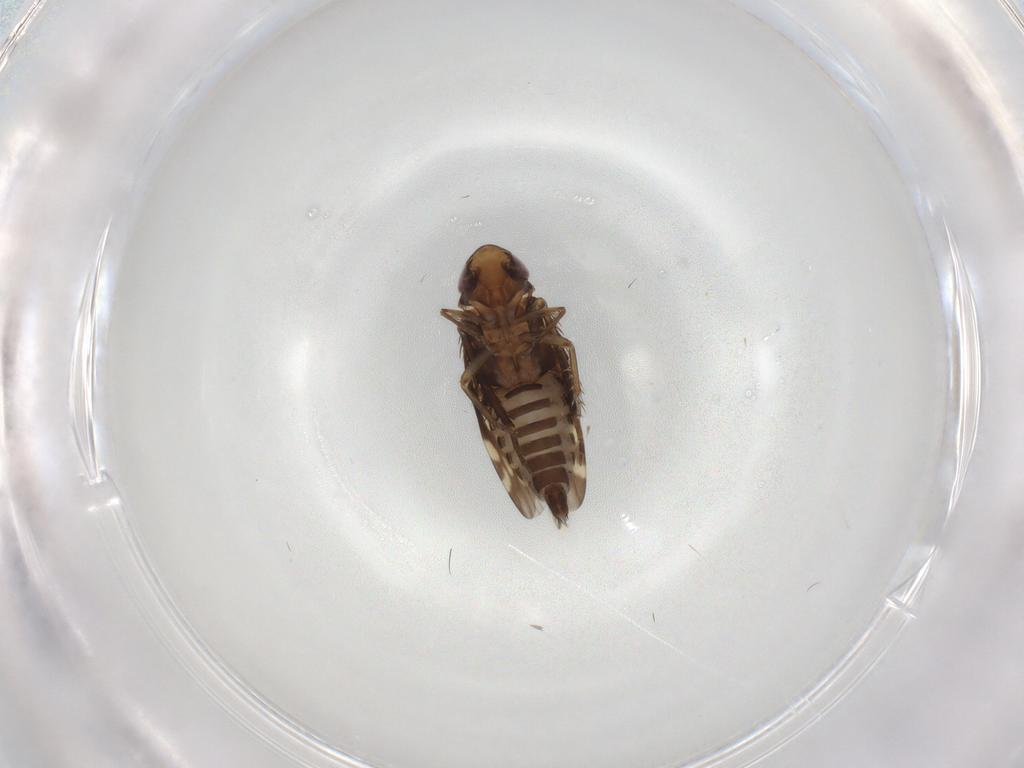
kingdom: Animalia
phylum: Arthropoda
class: Insecta
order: Hemiptera
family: Cicadellidae
